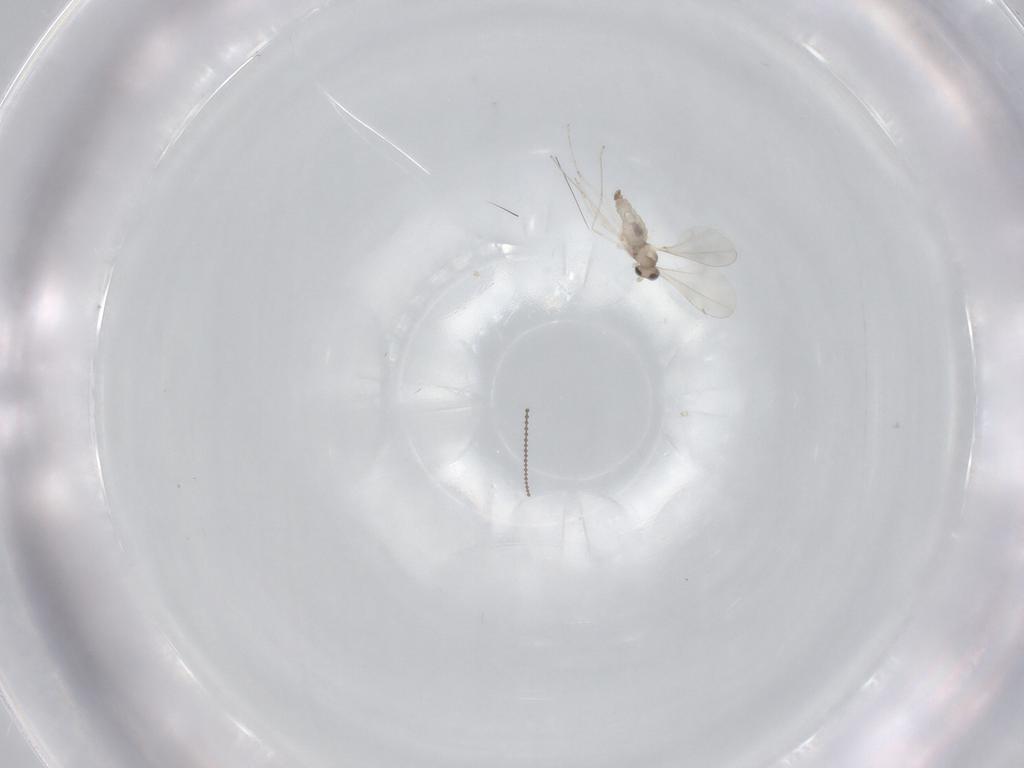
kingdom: Animalia
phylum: Arthropoda
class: Insecta
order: Diptera
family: Cecidomyiidae
